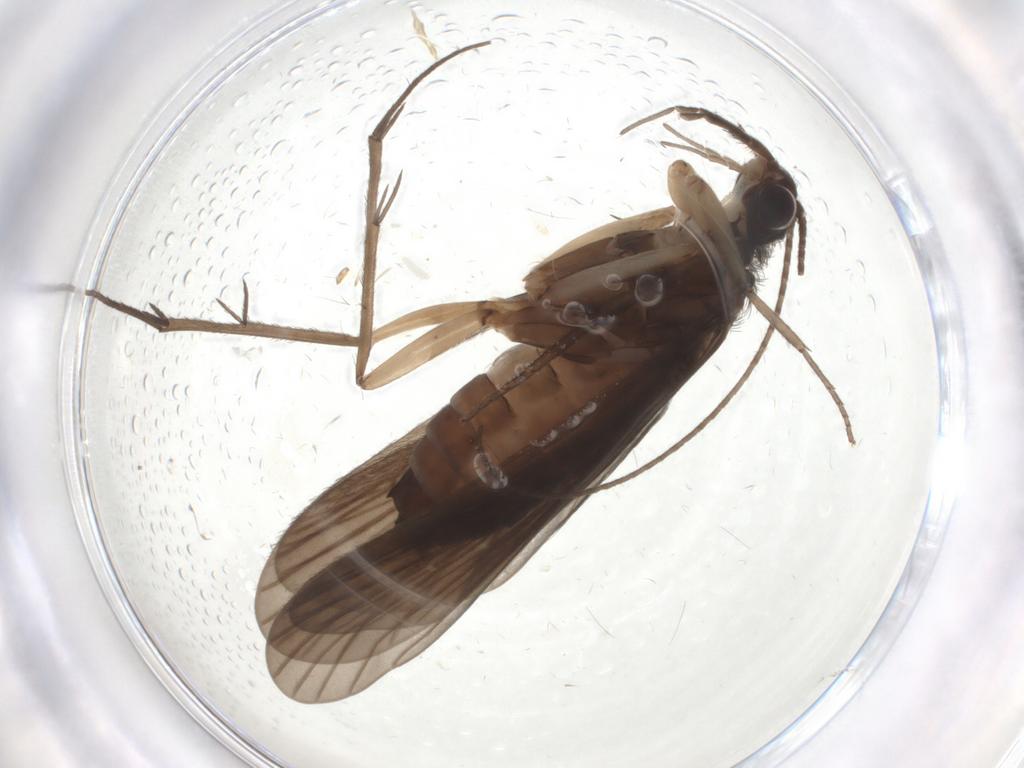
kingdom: Animalia
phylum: Arthropoda
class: Insecta
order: Trichoptera
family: Philopotamidae
